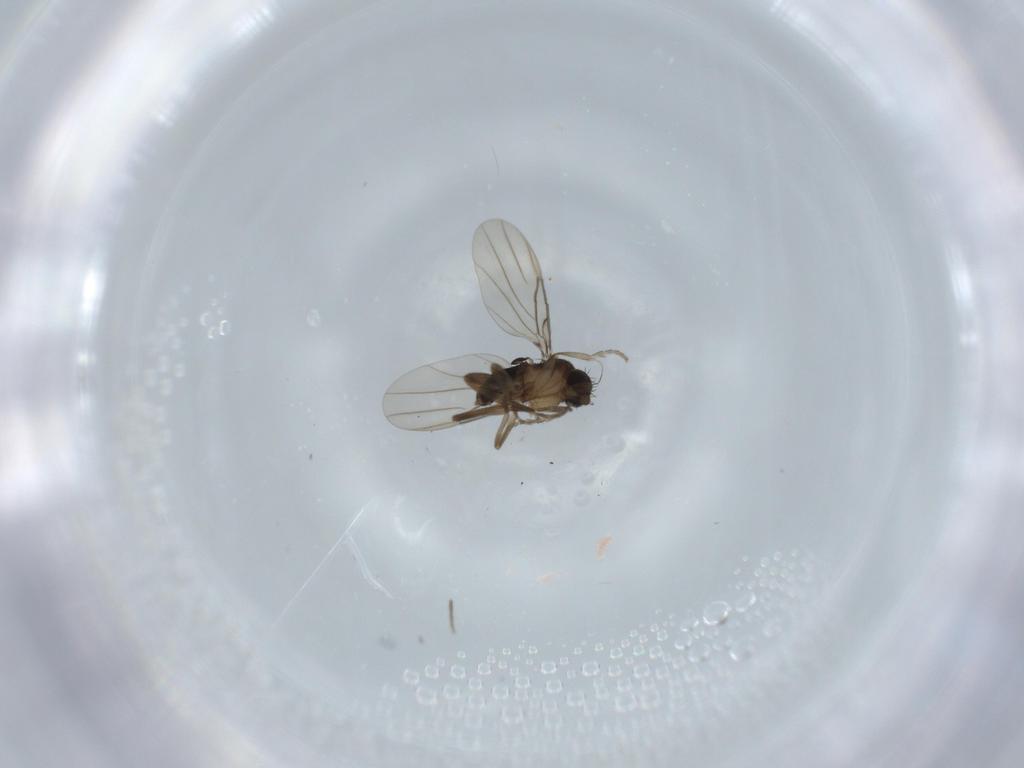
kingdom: Animalia
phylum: Arthropoda
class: Insecta
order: Diptera
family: Phoridae
